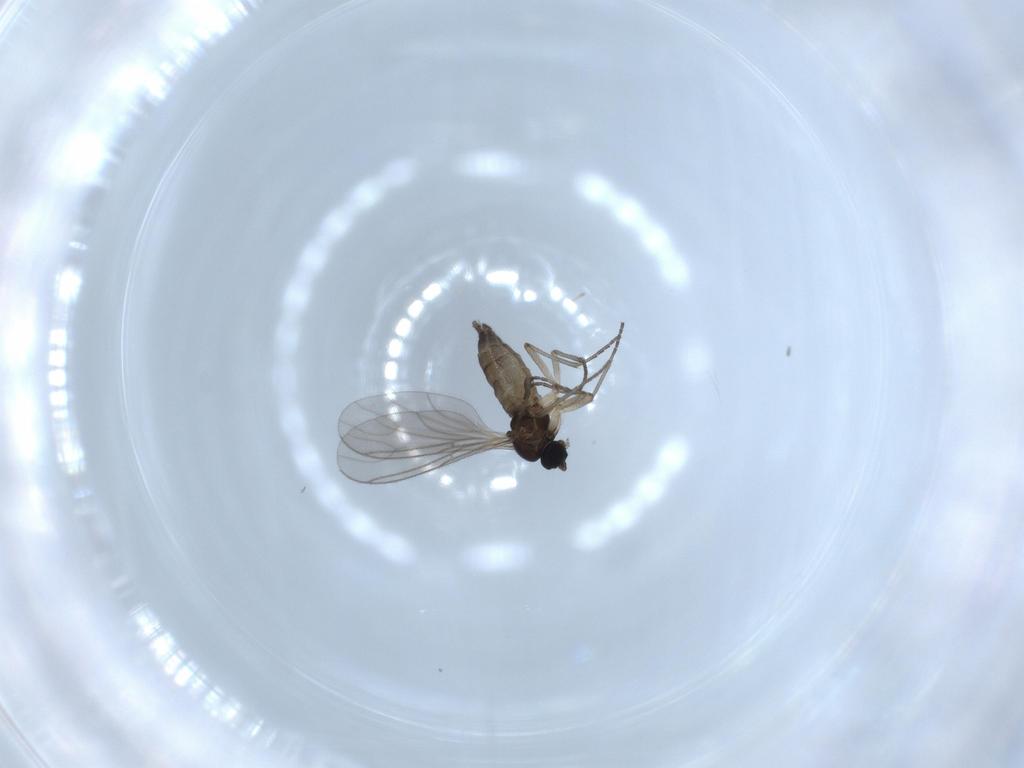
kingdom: Animalia
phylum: Arthropoda
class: Insecta
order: Diptera
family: Sciaridae
